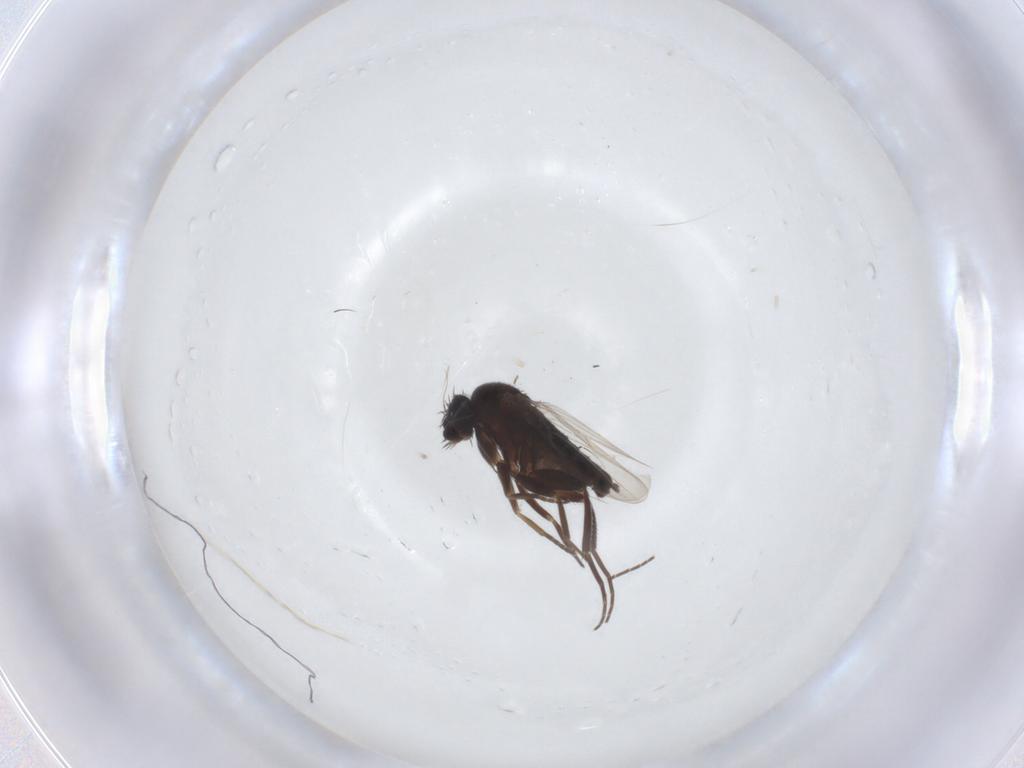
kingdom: Animalia
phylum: Arthropoda
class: Insecta
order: Diptera
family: Phoridae
